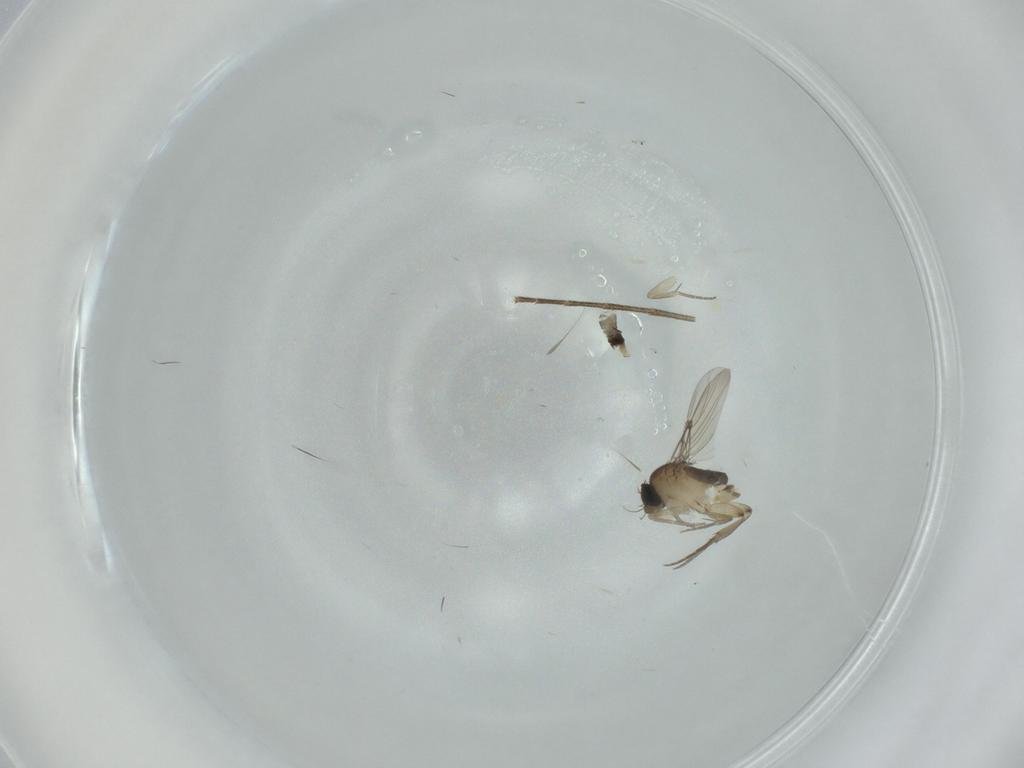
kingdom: Animalia
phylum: Arthropoda
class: Insecta
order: Diptera
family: Phoridae
